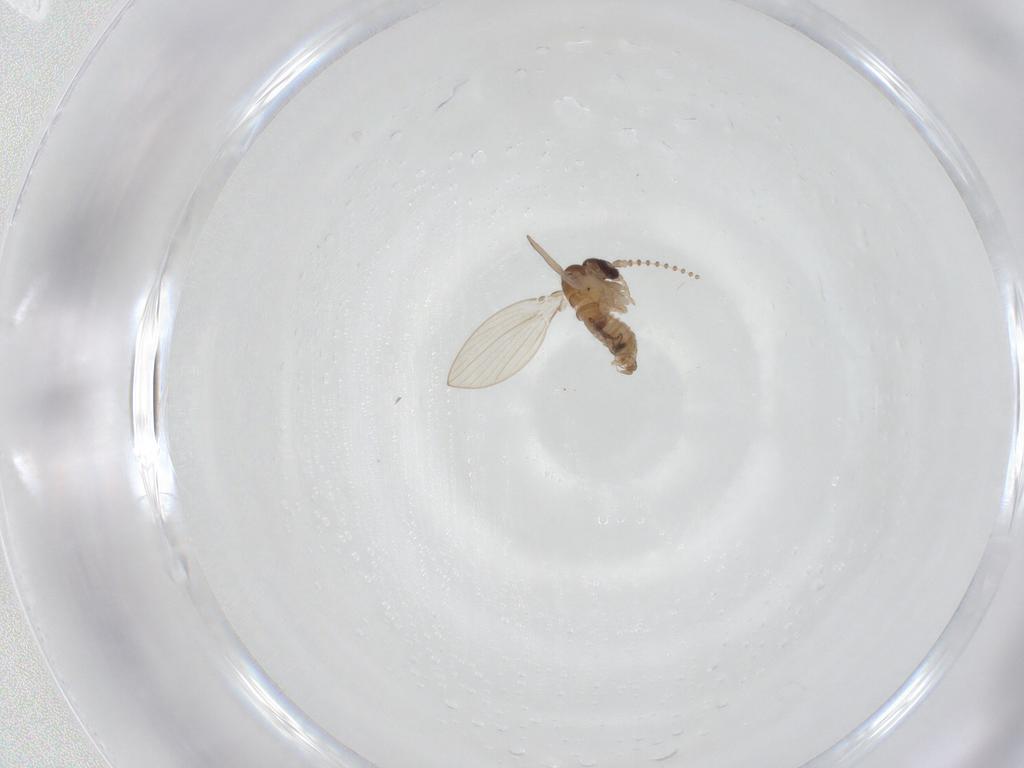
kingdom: Animalia
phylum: Arthropoda
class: Insecta
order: Diptera
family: Psychodidae
